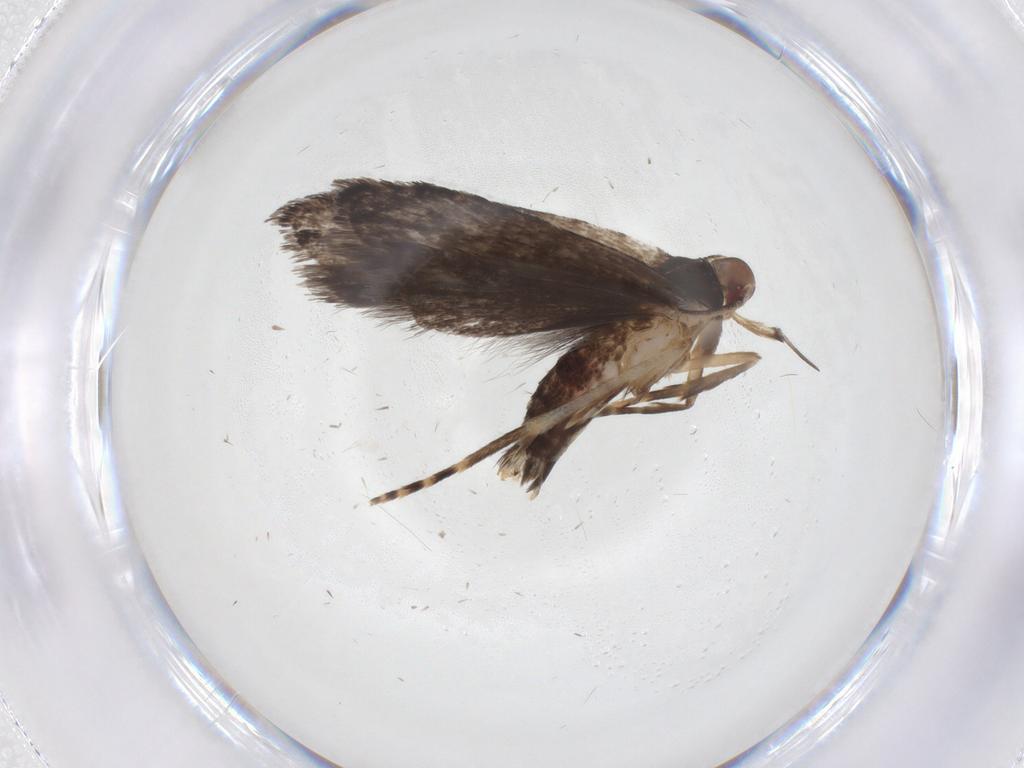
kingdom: Animalia
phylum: Arthropoda
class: Insecta
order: Lepidoptera
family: Gelechiidae
